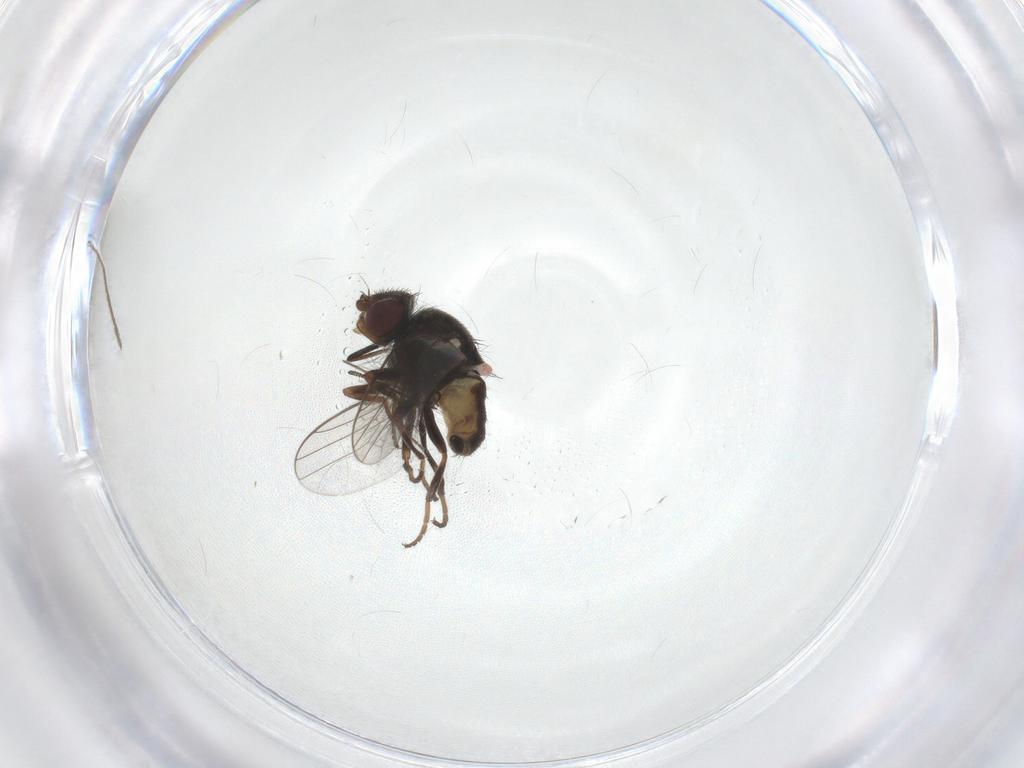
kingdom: Animalia
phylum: Arthropoda
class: Insecta
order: Diptera
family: Chloropidae
